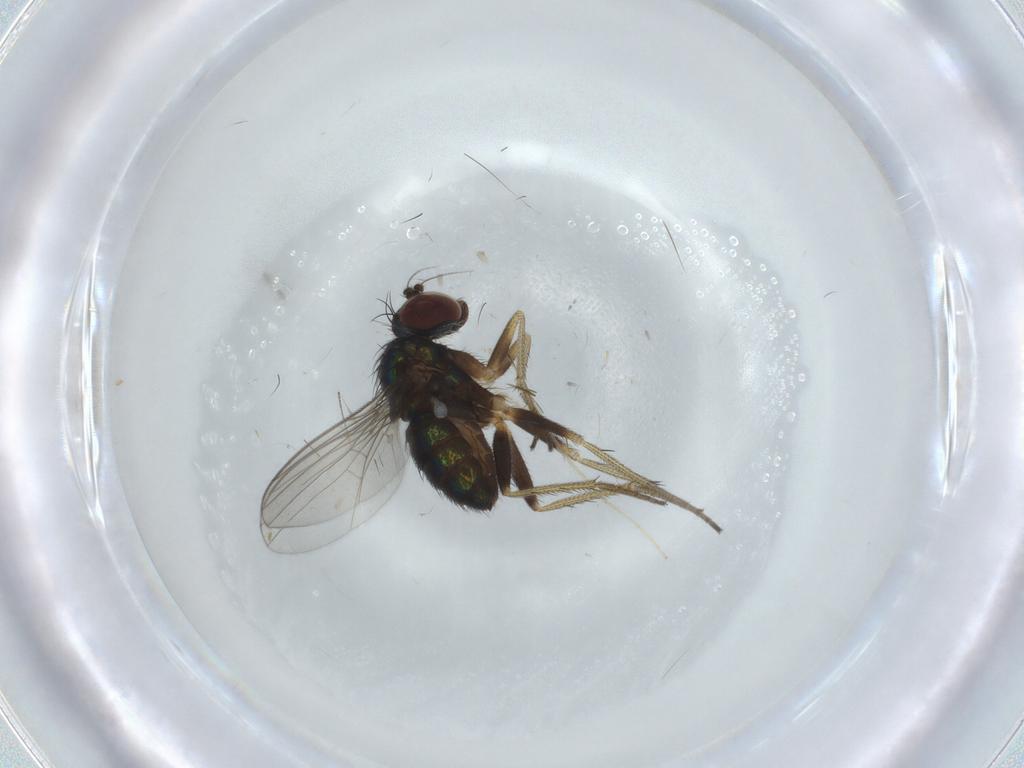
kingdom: Animalia
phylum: Arthropoda
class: Insecta
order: Diptera
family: Chironomidae
